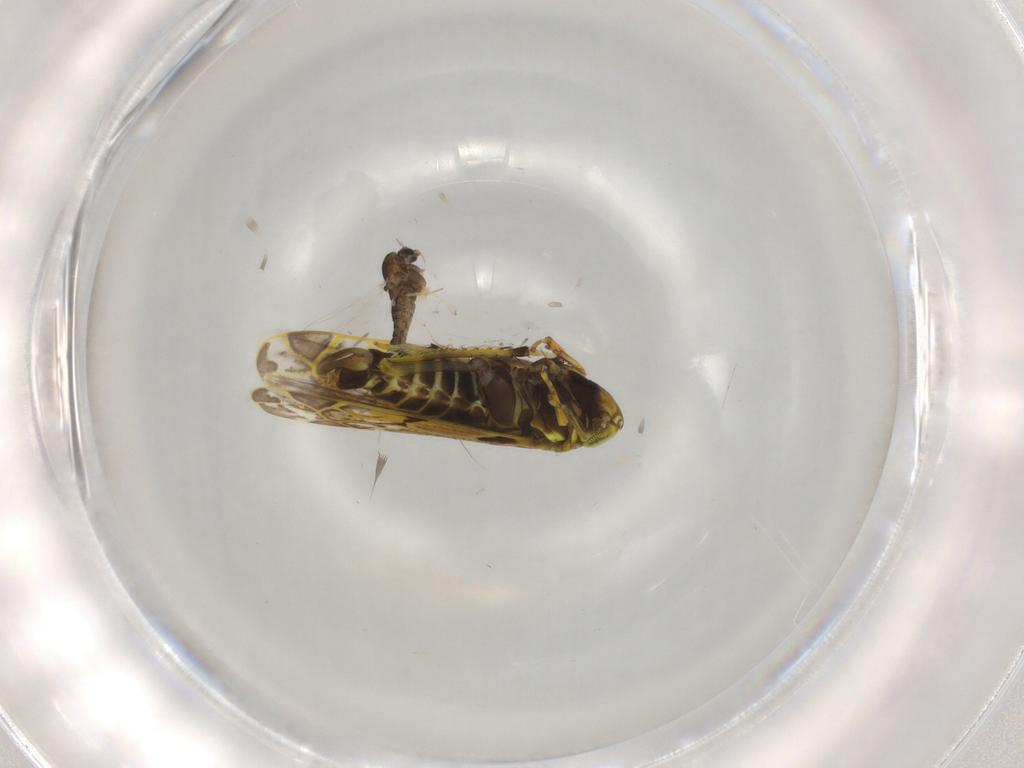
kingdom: Animalia
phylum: Arthropoda
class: Insecta
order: Hemiptera
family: Cicadellidae
